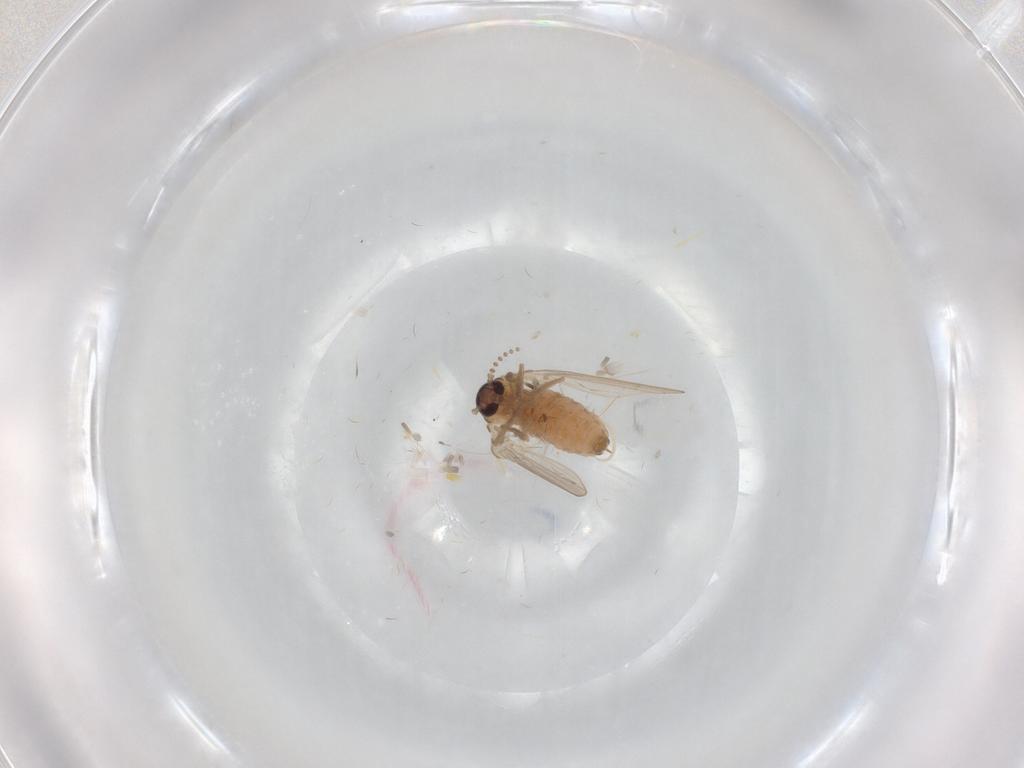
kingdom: Animalia
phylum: Arthropoda
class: Insecta
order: Diptera
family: Psychodidae
